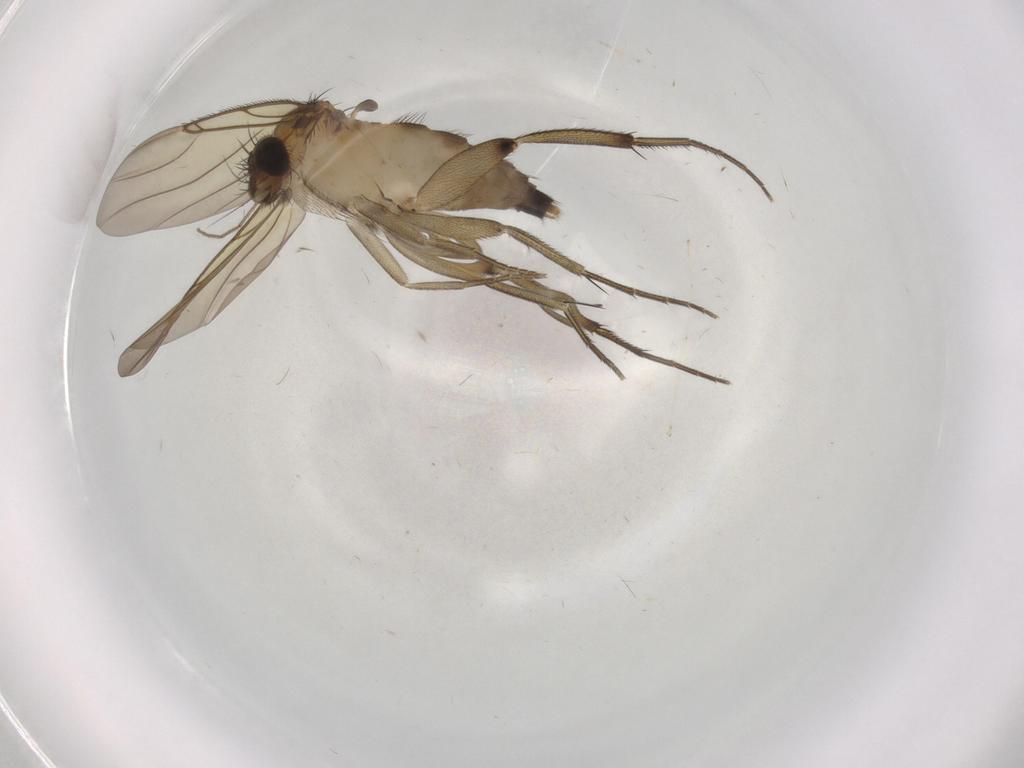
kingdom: Animalia
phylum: Arthropoda
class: Insecta
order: Diptera
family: Phoridae
